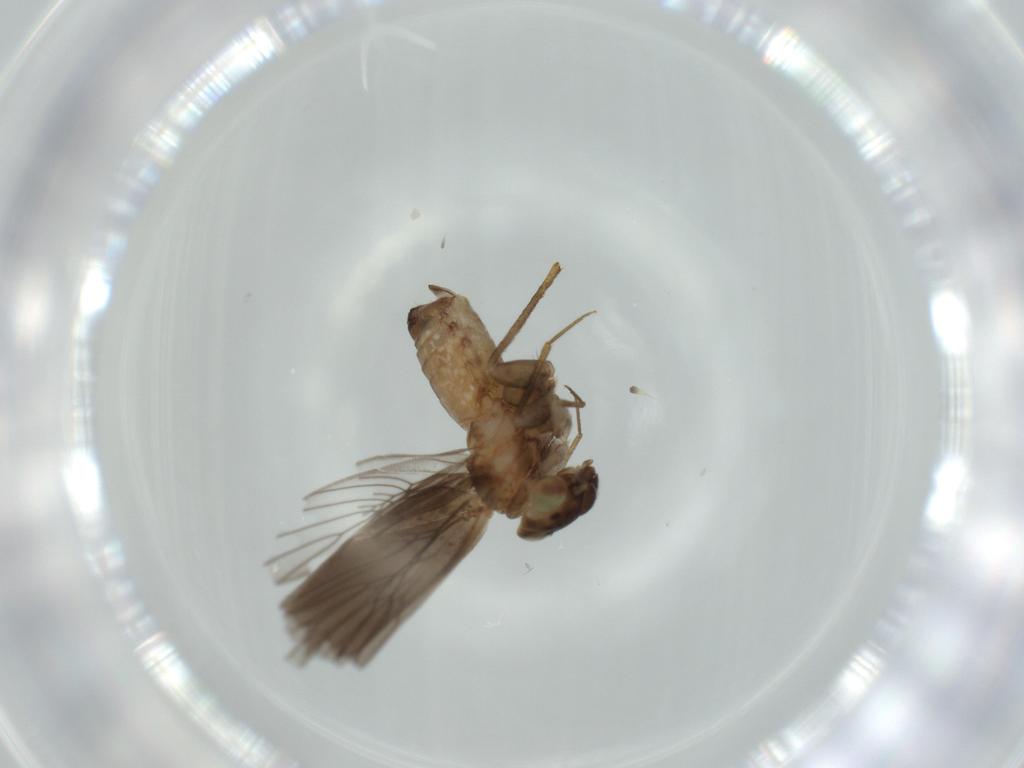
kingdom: Animalia
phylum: Arthropoda
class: Insecta
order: Psocodea
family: Lepidopsocidae
